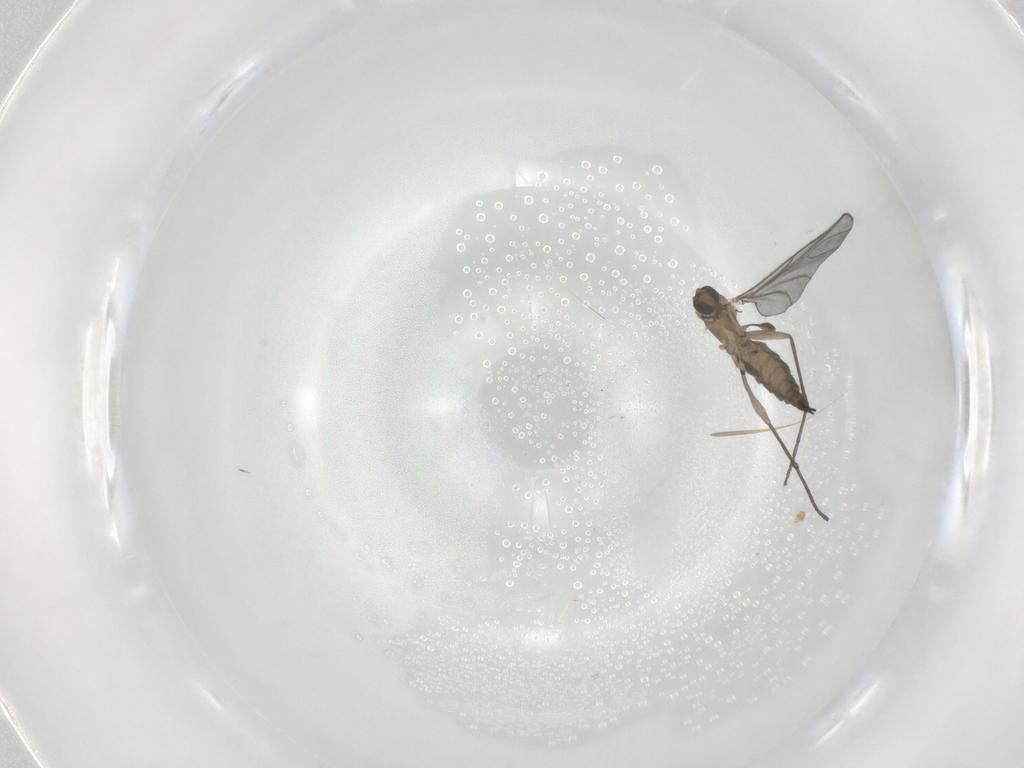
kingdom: Animalia
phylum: Arthropoda
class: Insecta
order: Diptera
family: Sciaridae
